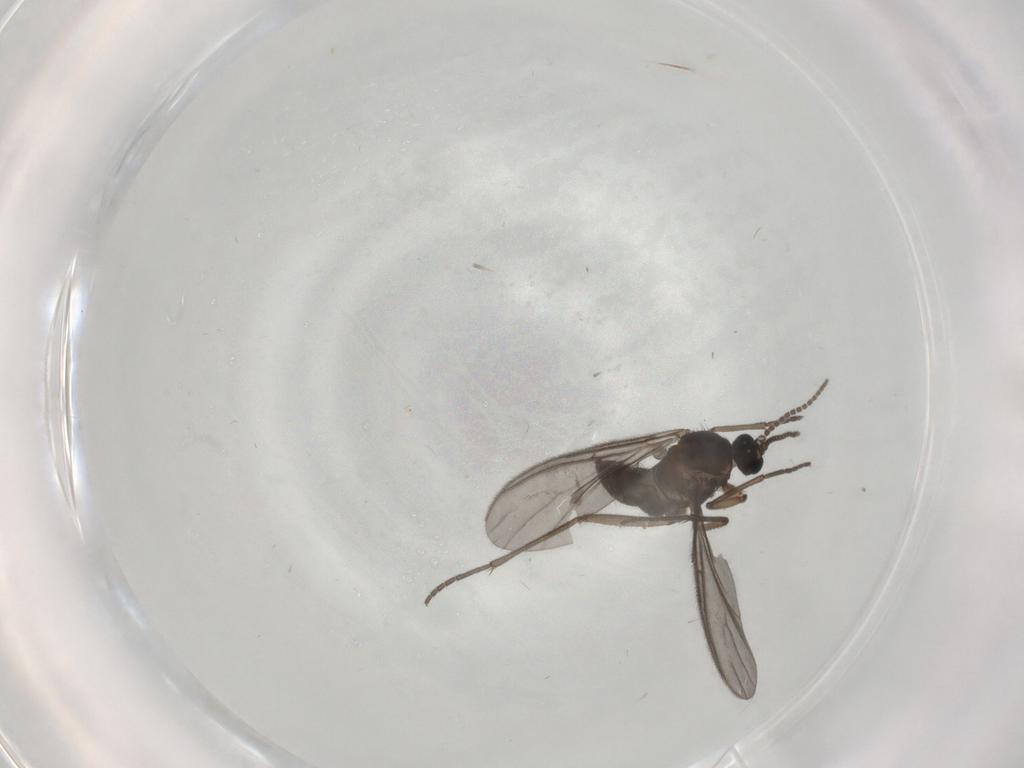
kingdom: Animalia
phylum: Arthropoda
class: Insecta
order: Diptera
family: Sciaridae
